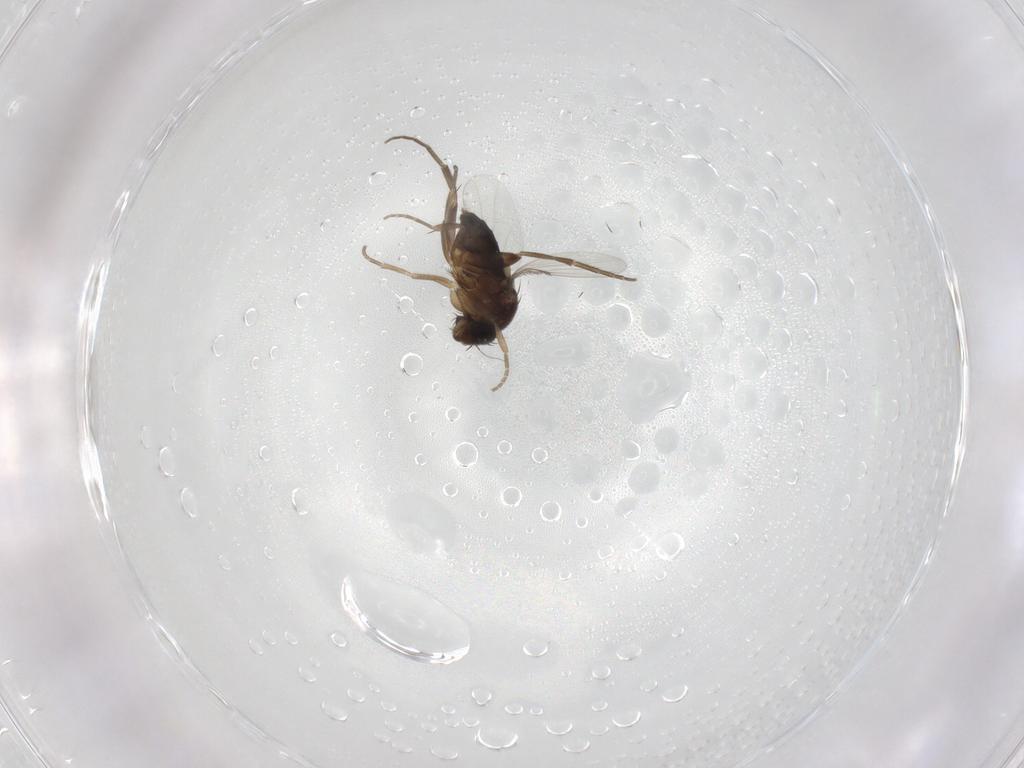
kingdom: Animalia
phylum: Arthropoda
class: Insecta
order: Diptera
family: Phoridae
